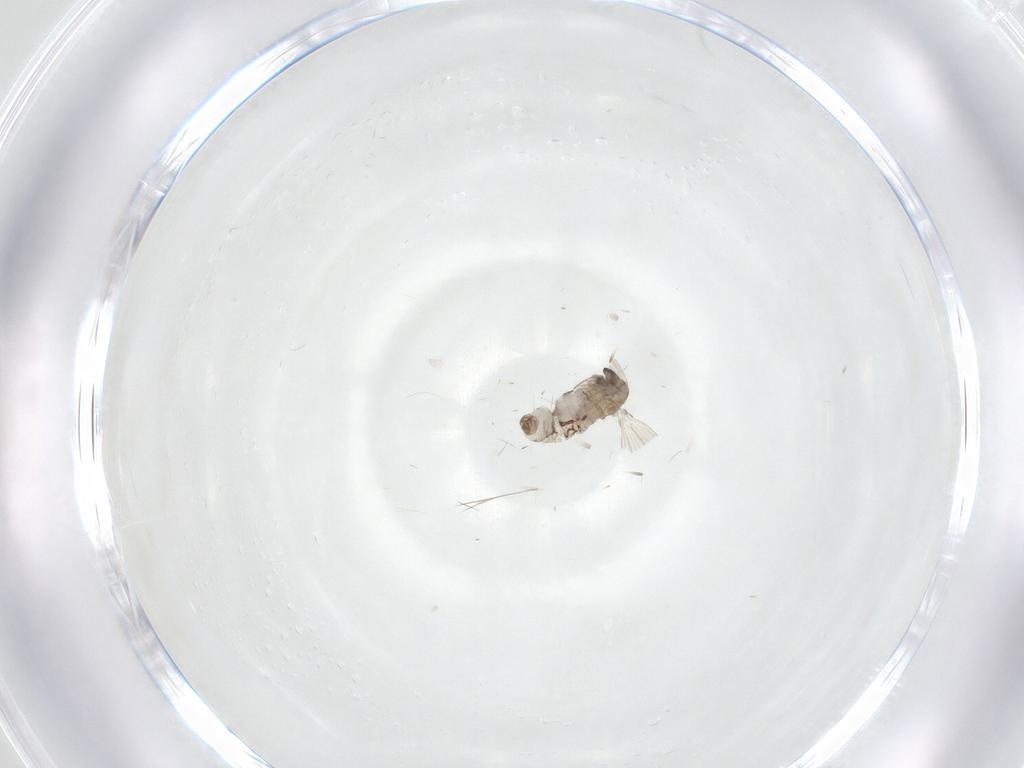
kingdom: Animalia
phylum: Arthropoda
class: Insecta
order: Diptera
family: Psychodidae
